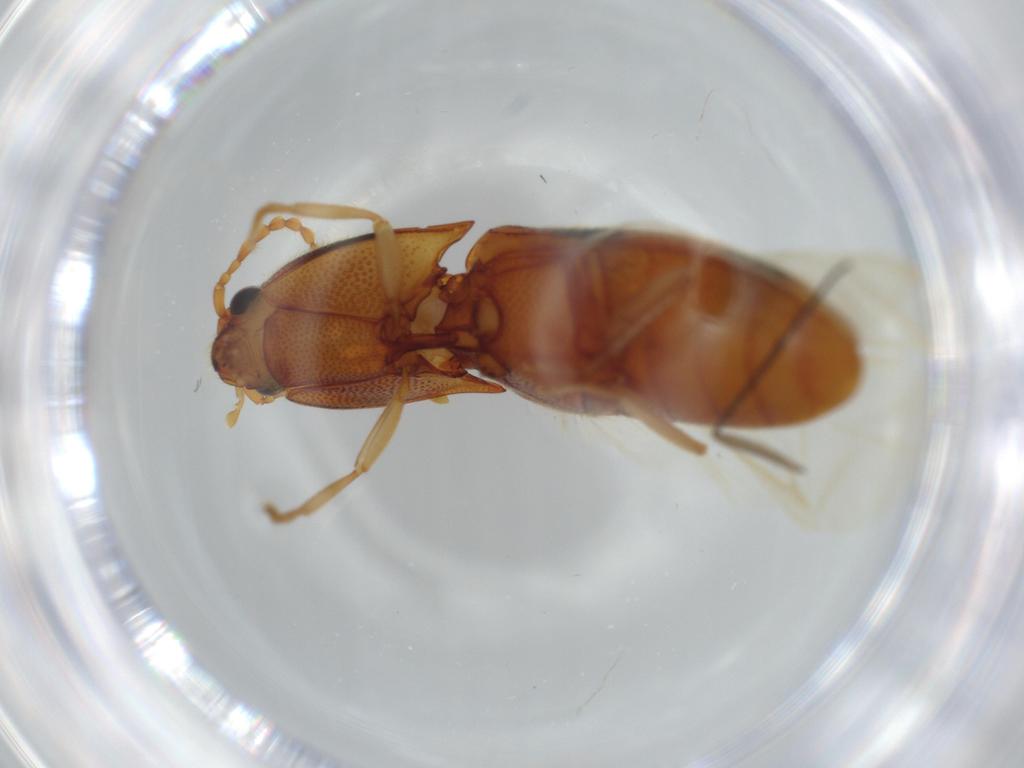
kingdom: Animalia
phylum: Arthropoda
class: Insecta
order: Coleoptera
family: Elateridae
